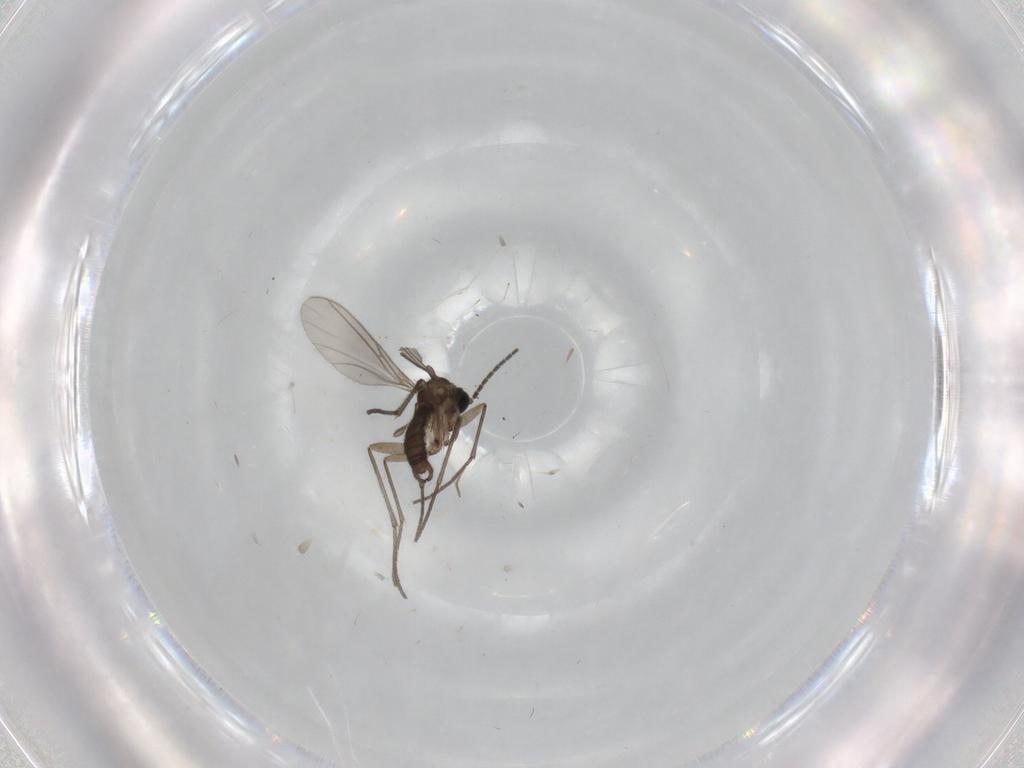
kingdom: Animalia
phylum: Arthropoda
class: Insecta
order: Diptera
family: Sciaridae
